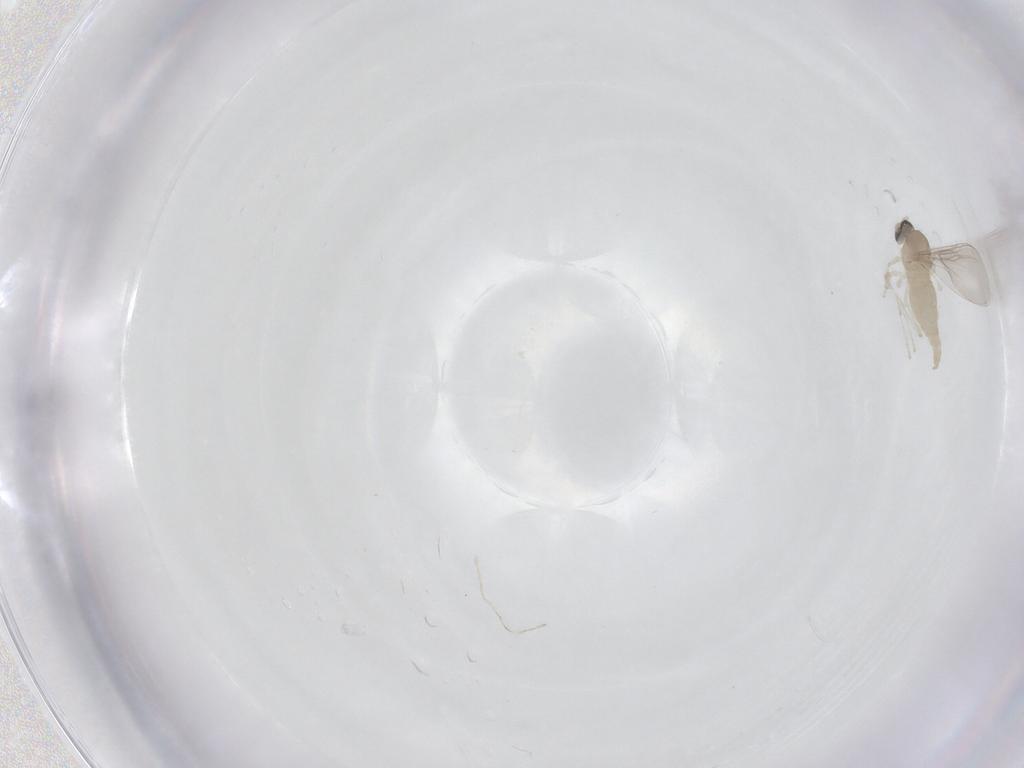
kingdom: Animalia
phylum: Arthropoda
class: Insecta
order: Diptera
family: Cecidomyiidae
